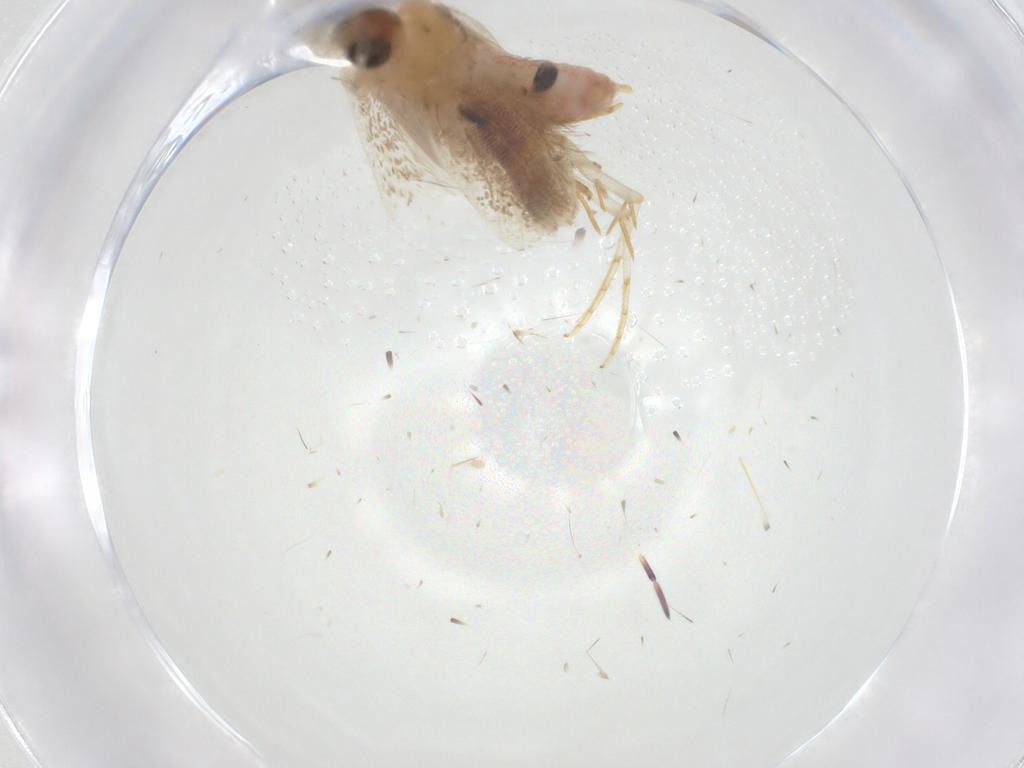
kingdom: Animalia
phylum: Arthropoda
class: Insecta
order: Lepidoptera
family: Gelechiidae
